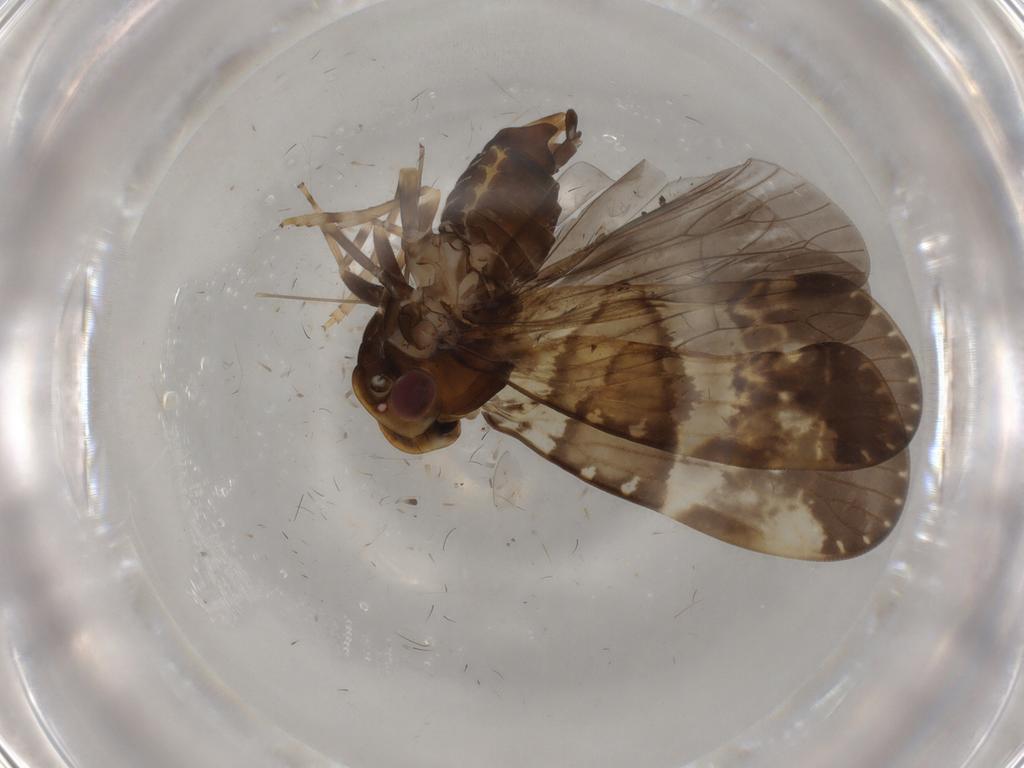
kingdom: Animalia
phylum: Arthropoda
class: Insecta
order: Hemiptera
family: Cixiidae
